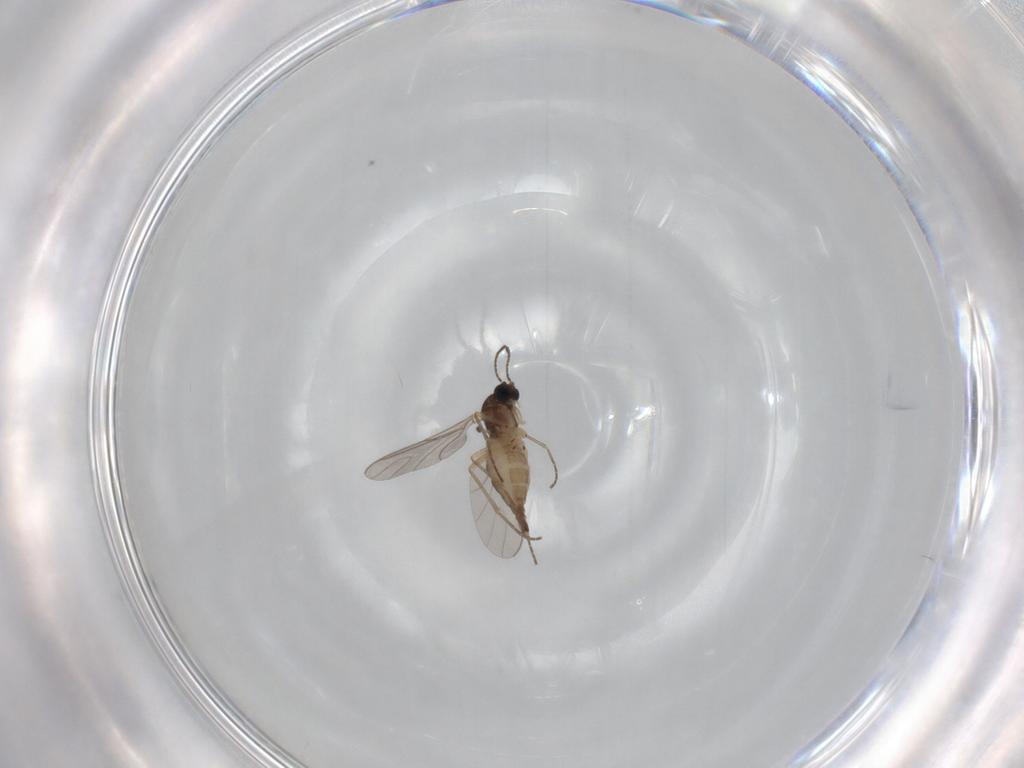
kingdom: Animalia
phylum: Arthropoda
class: Insecta
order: Diptera
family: Sciaridae
